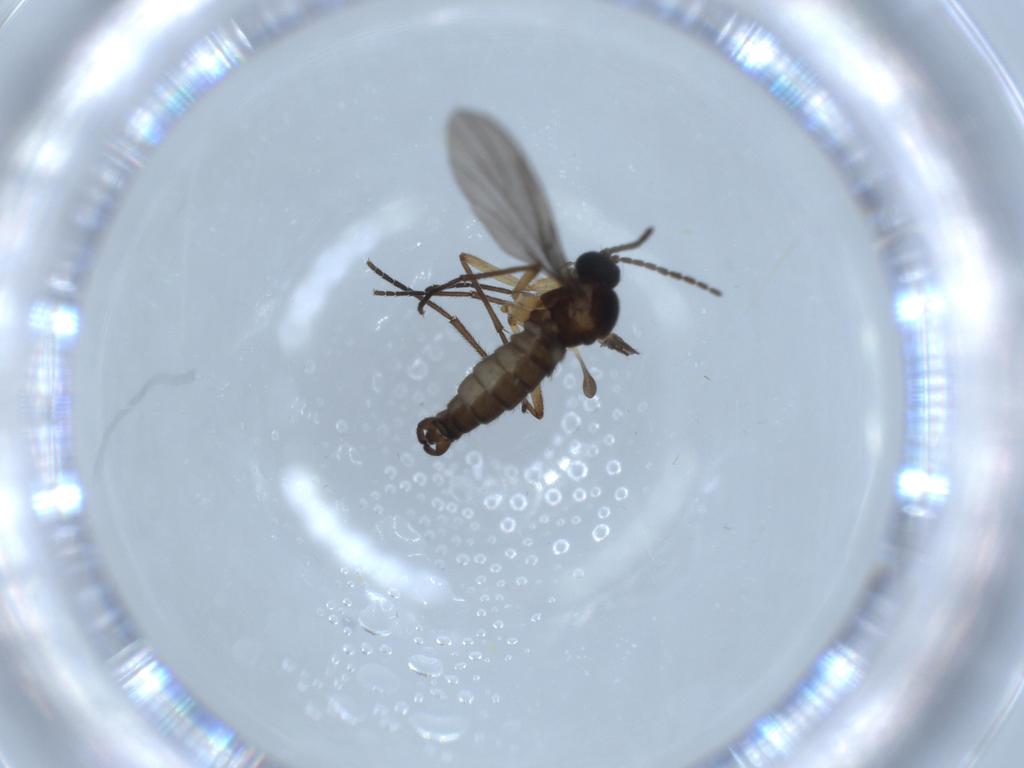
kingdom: Animalia
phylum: Arthropoda
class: Insecta
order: Diptera
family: Sciaridae
